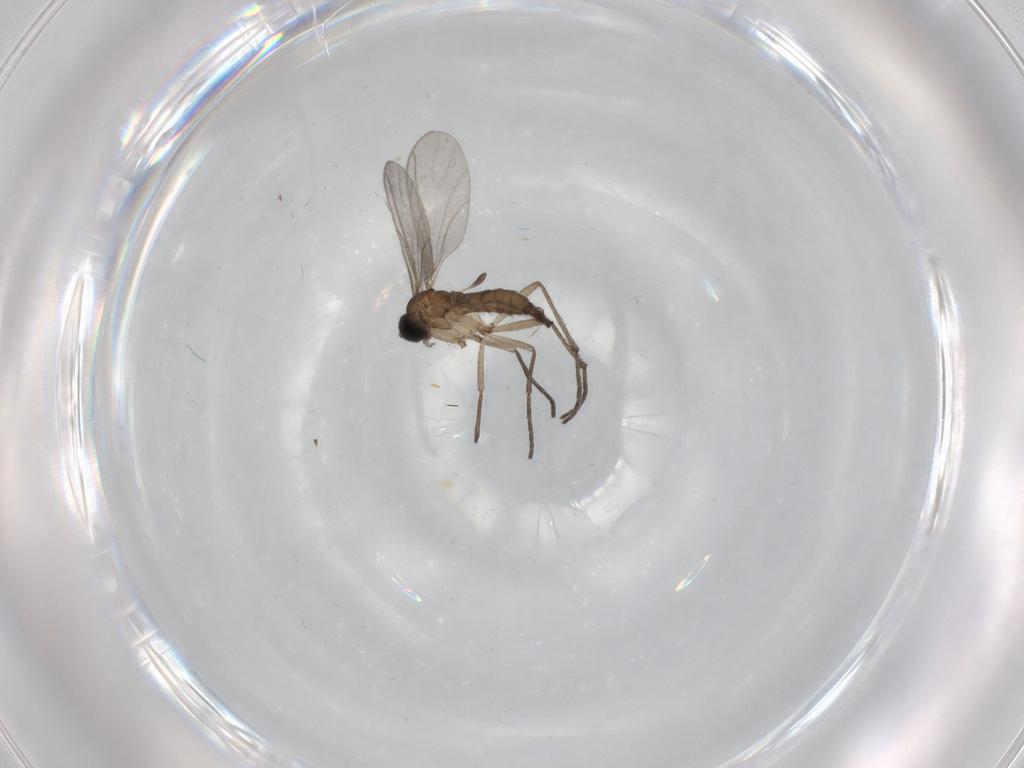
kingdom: Animalia
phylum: Arthropoda
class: Insecta
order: Diptera
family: Sciaridae
